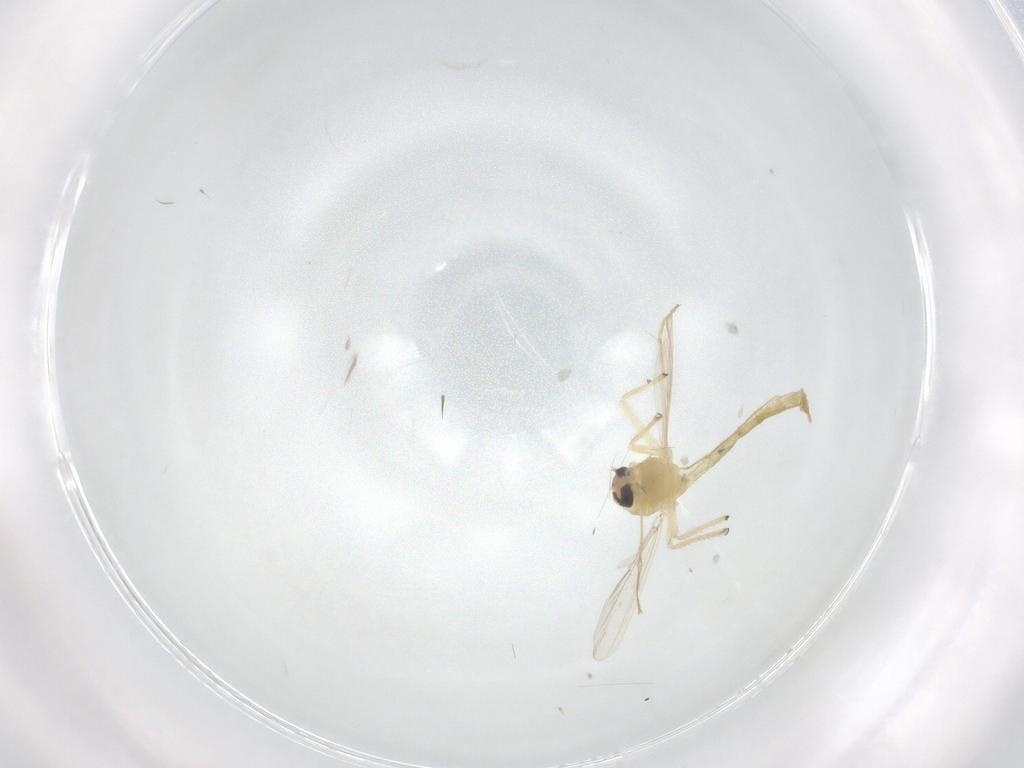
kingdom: Animalia
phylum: Arthropoda
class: Insecta
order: Diptera
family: Chironomidae
